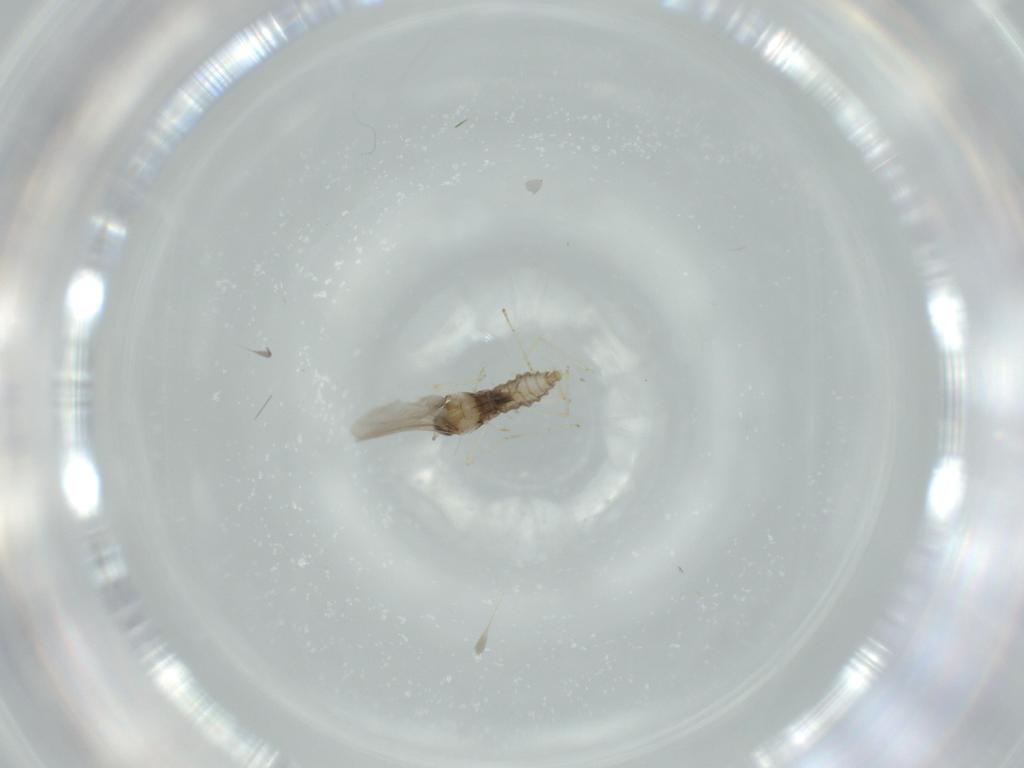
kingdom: Animalia
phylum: Arthropoda
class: Insecta
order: Diptera
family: Cecidomyiidae
